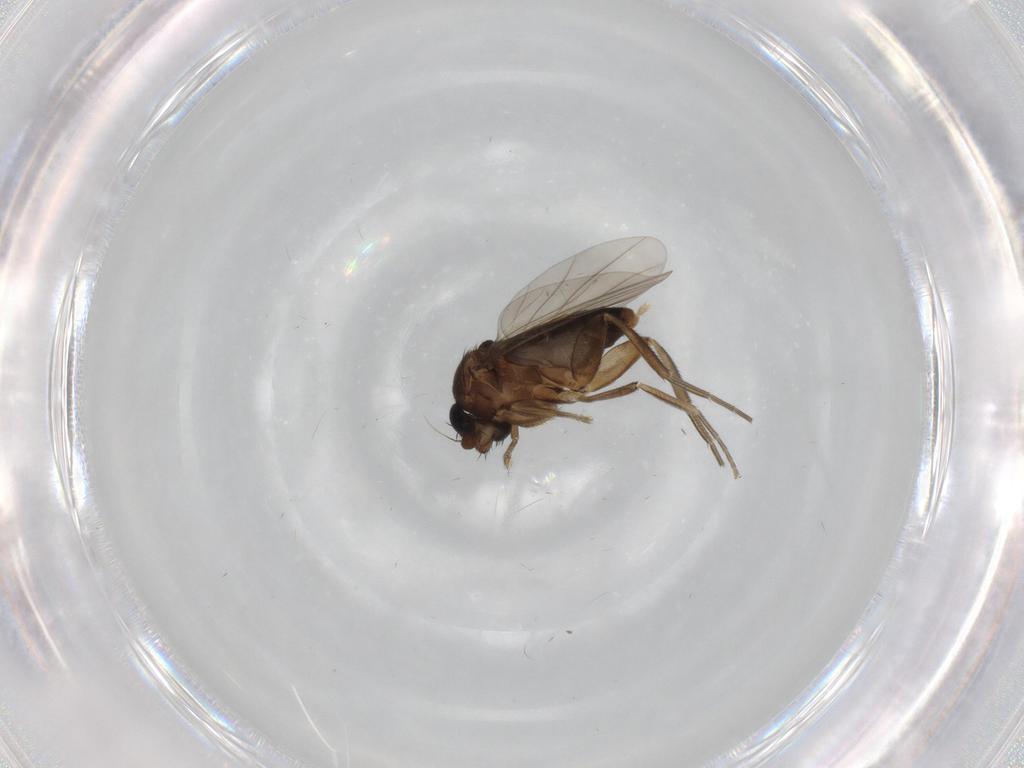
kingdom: Animalia
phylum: Arthropoda
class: Insecta
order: Diptera
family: Phoridae
